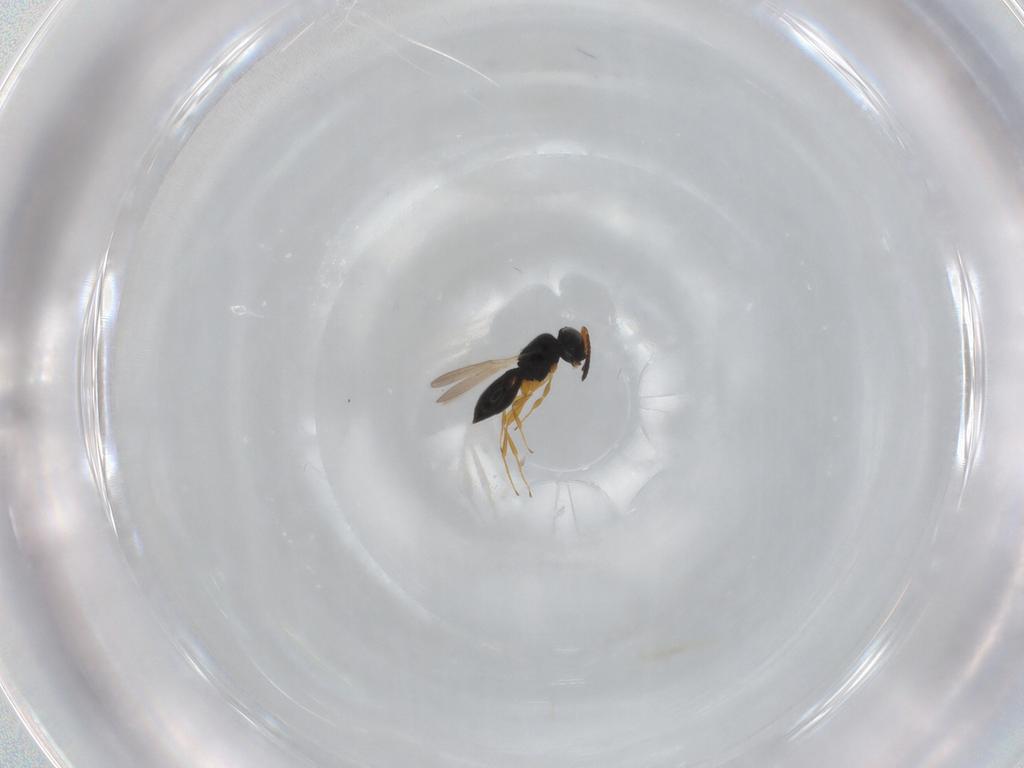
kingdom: Animalia
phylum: Arthropoda
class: Insecta
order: Hymenoptera
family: Scelionidae
